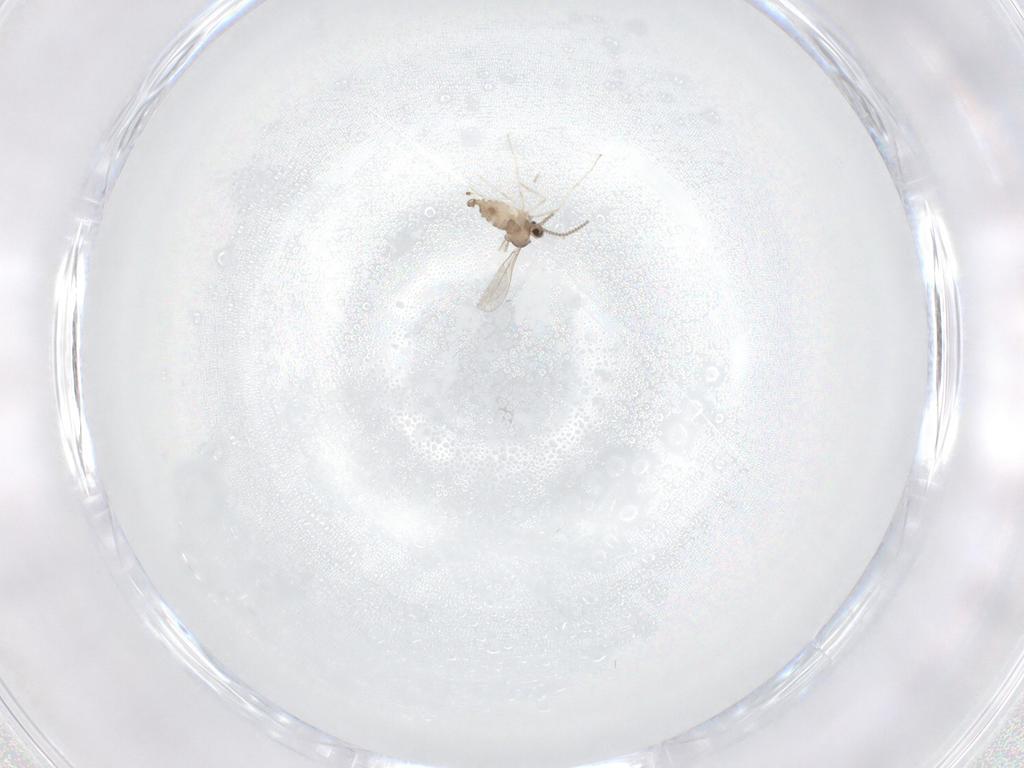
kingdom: Animalia
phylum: Arthropoda
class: Insecta
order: Diptera
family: Cecidomyiidae
